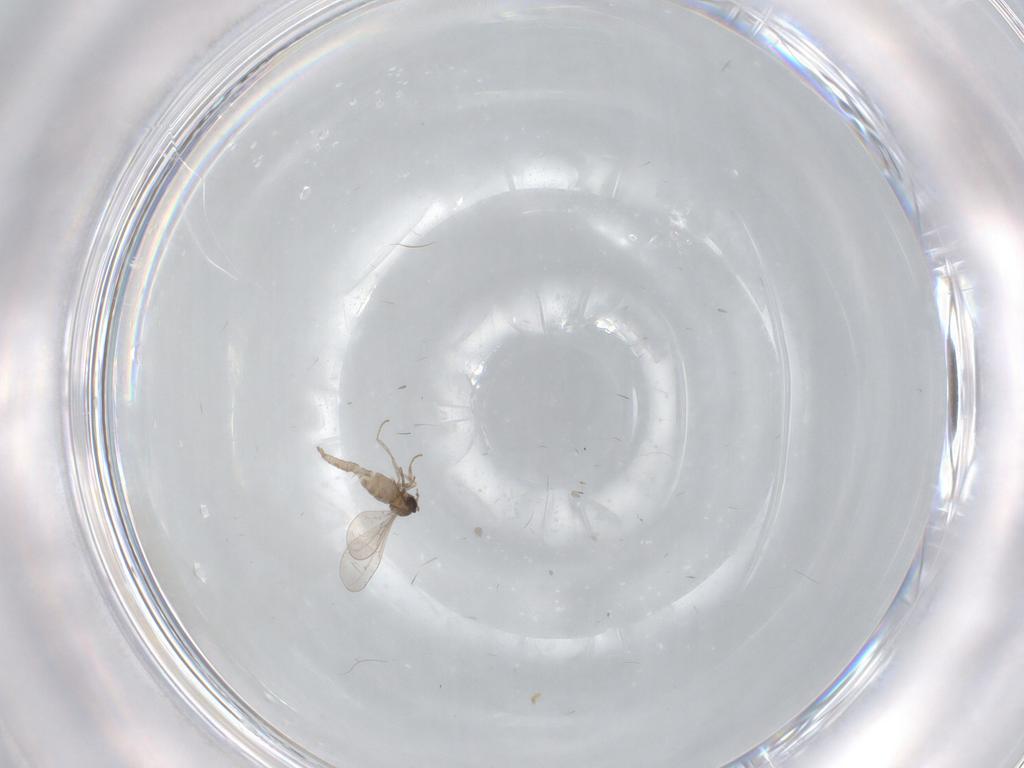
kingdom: Animalia
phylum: Arthropoda
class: Insecta
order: Diptera
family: Cecidomyiidae
